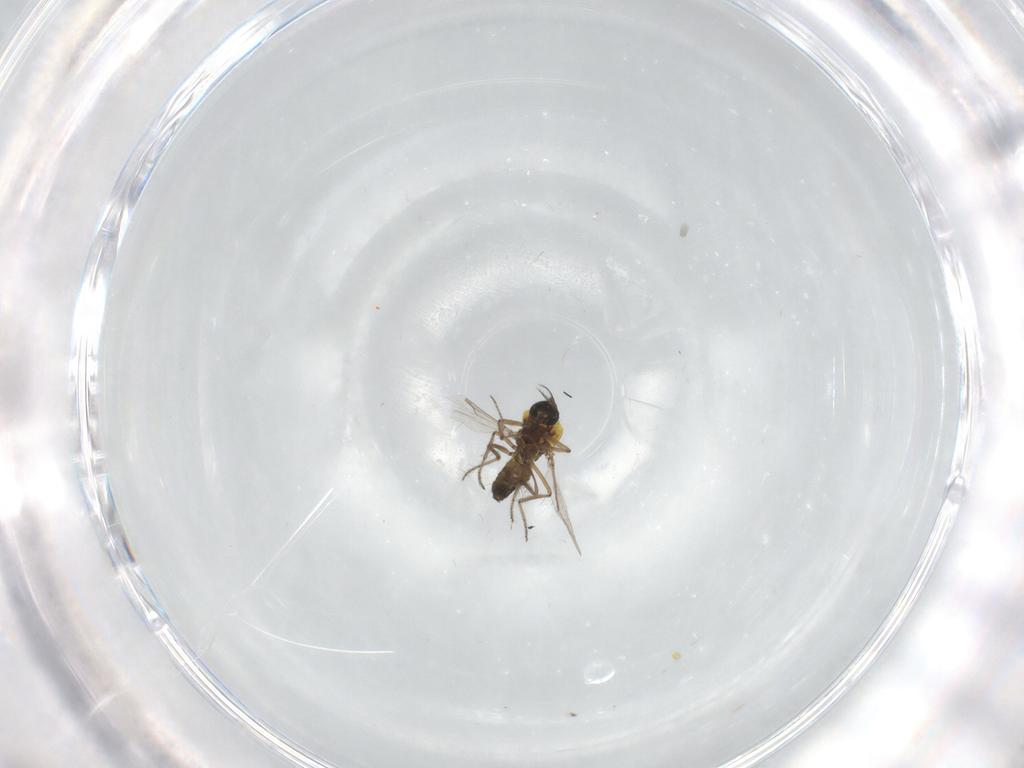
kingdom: Animalia
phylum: Arthropoda
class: Insecta
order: Diptera
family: Ceratopogonidae
